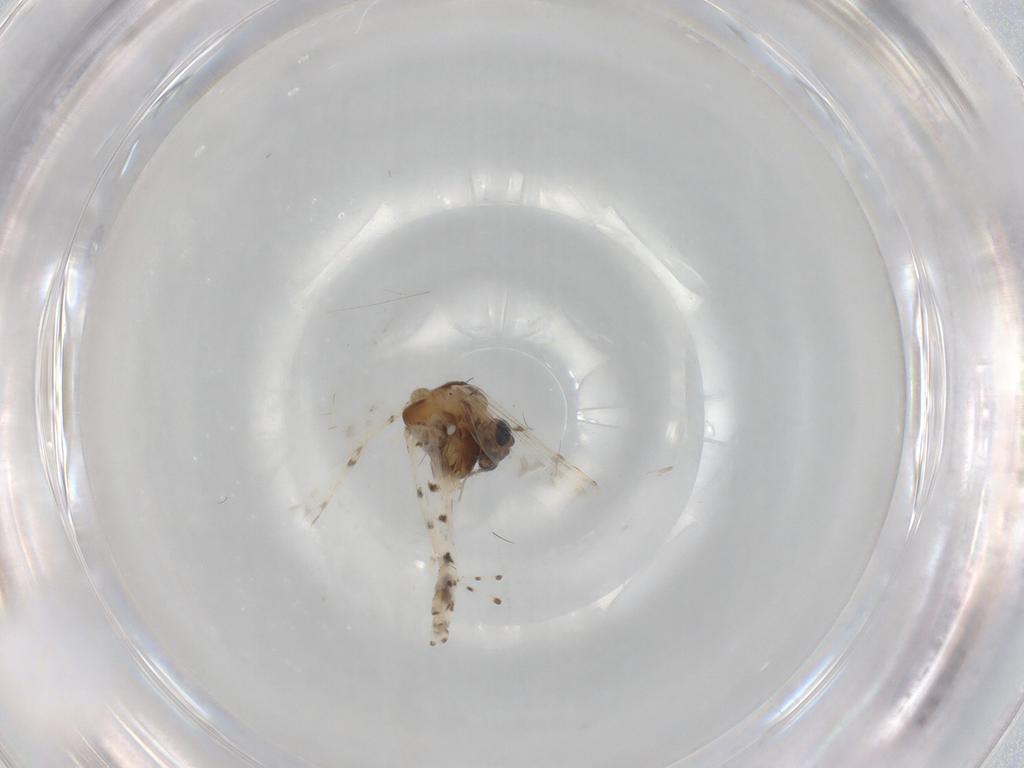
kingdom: Animalia
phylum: Arthropoda
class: Insecta
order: Diptera
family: Chironomidae
